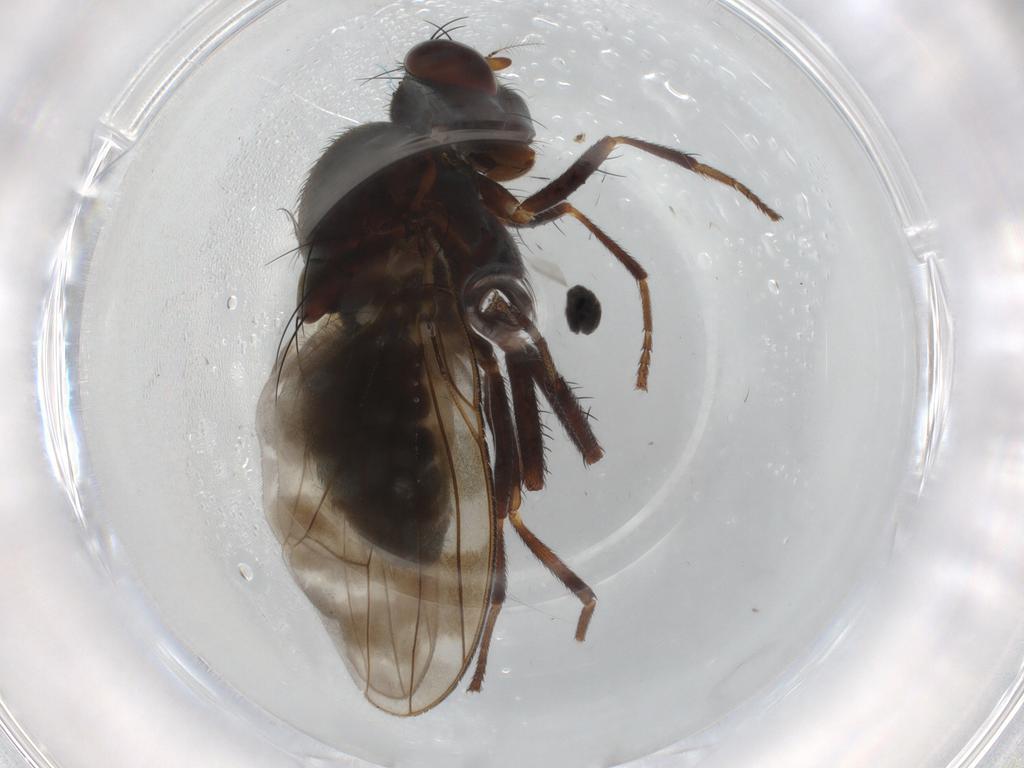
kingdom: Animalia
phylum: Arthropoda
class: Insecta
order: Diptera
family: Cecidomyiidae
